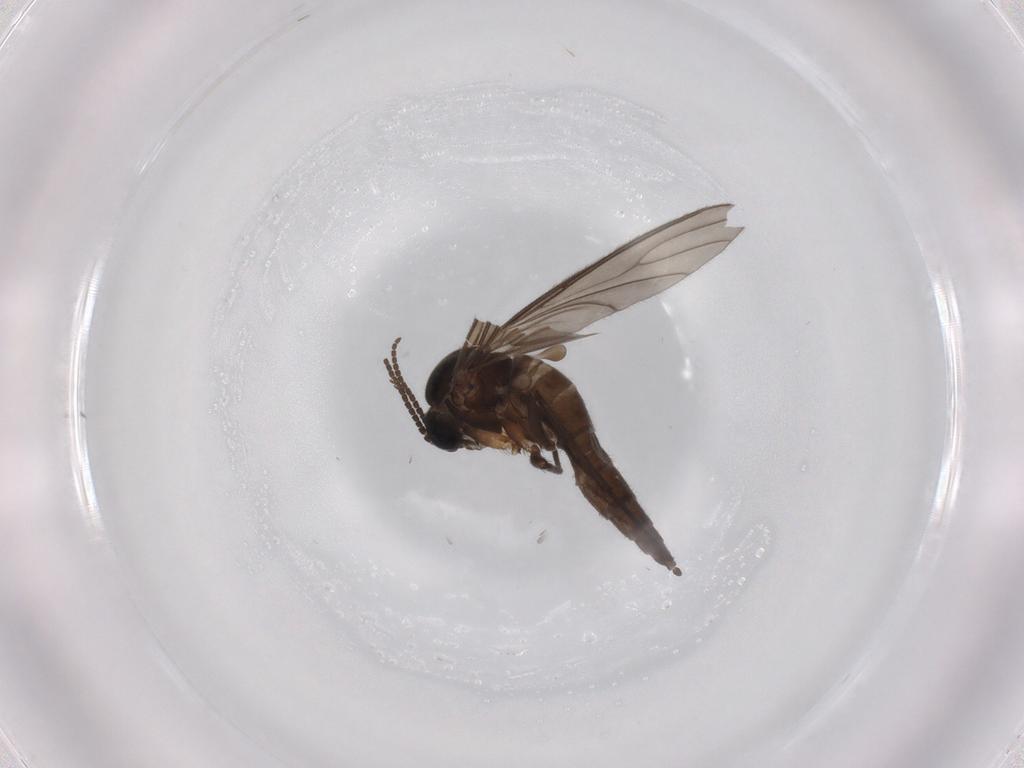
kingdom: Animalia
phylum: Arthropoda
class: Insecta
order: Diptera
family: Sciaridae
